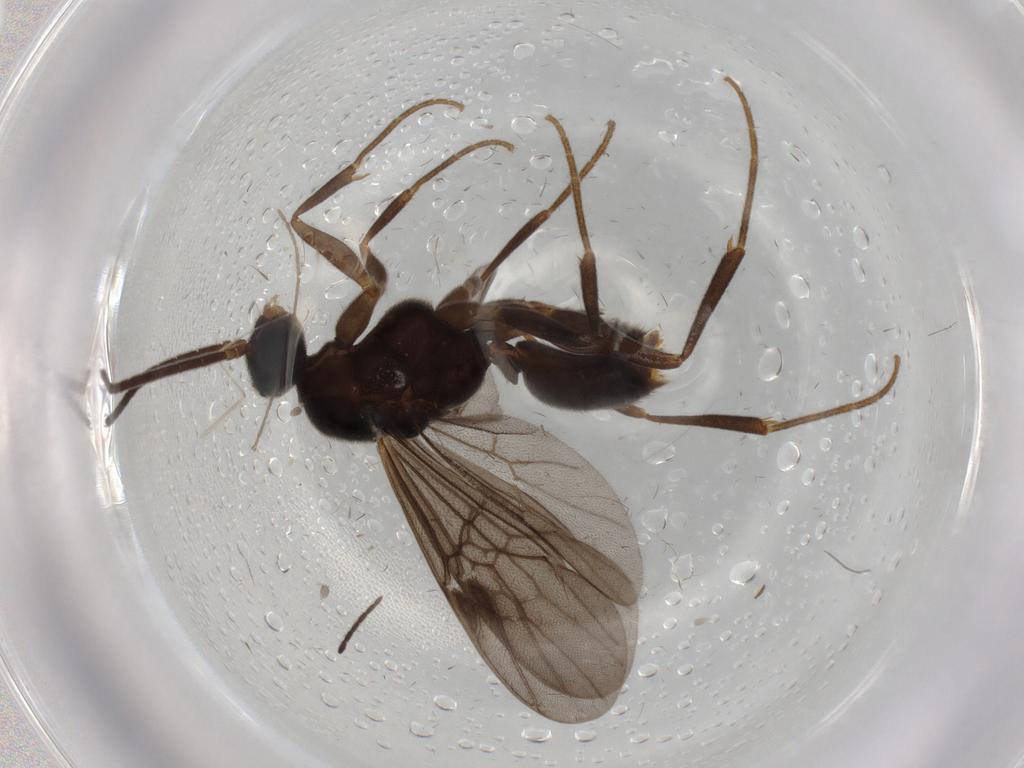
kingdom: Animalia
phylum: Arthropoda
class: Insecta
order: Hymenoptera
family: Formicidae
